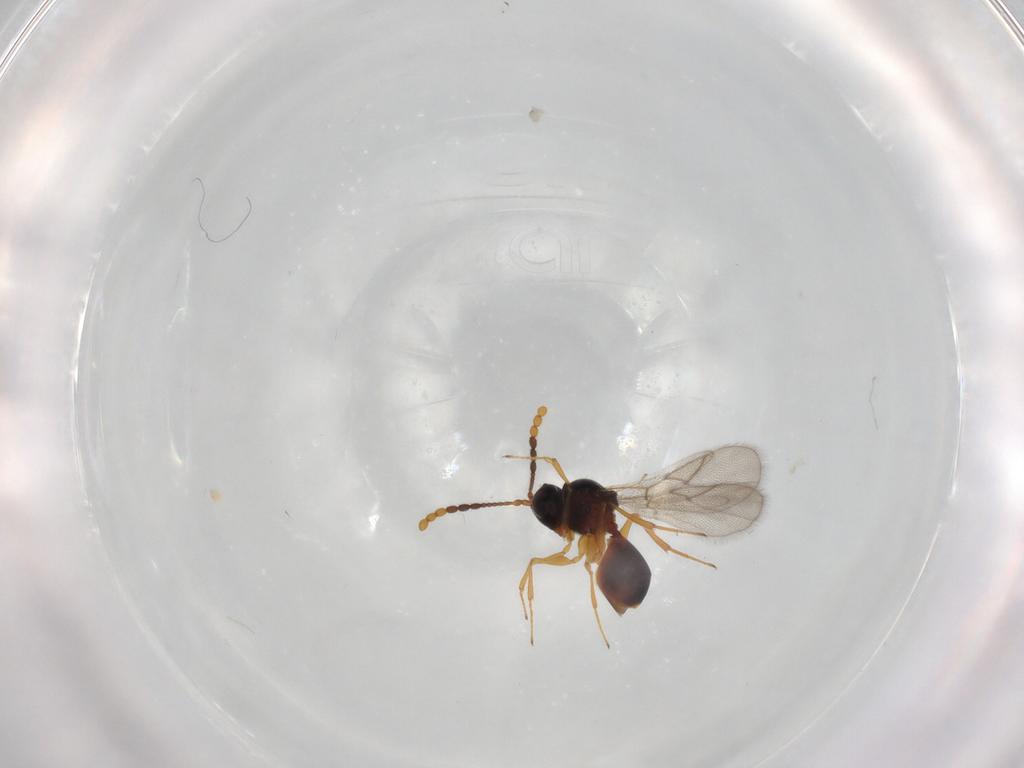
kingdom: Animalia
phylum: Arthropoda
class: Insecta
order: Hymenoptera
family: Figitidae
